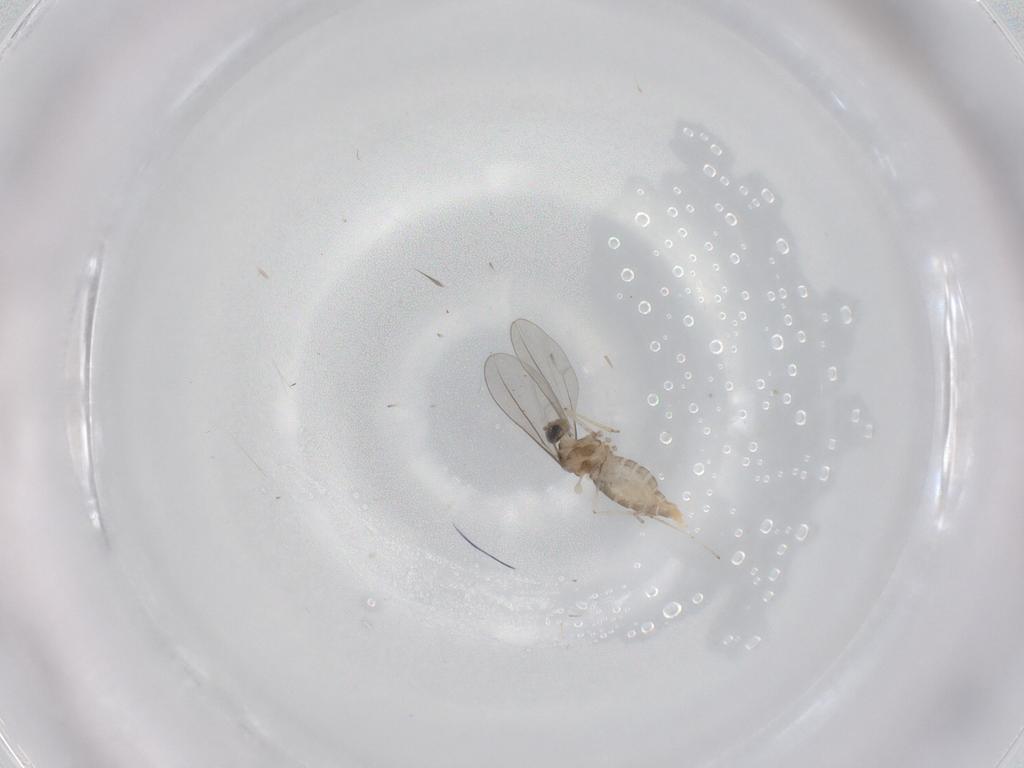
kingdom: Animalia
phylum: Arthropoda
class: Insecta
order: Diptera
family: Cecidomyiidae
